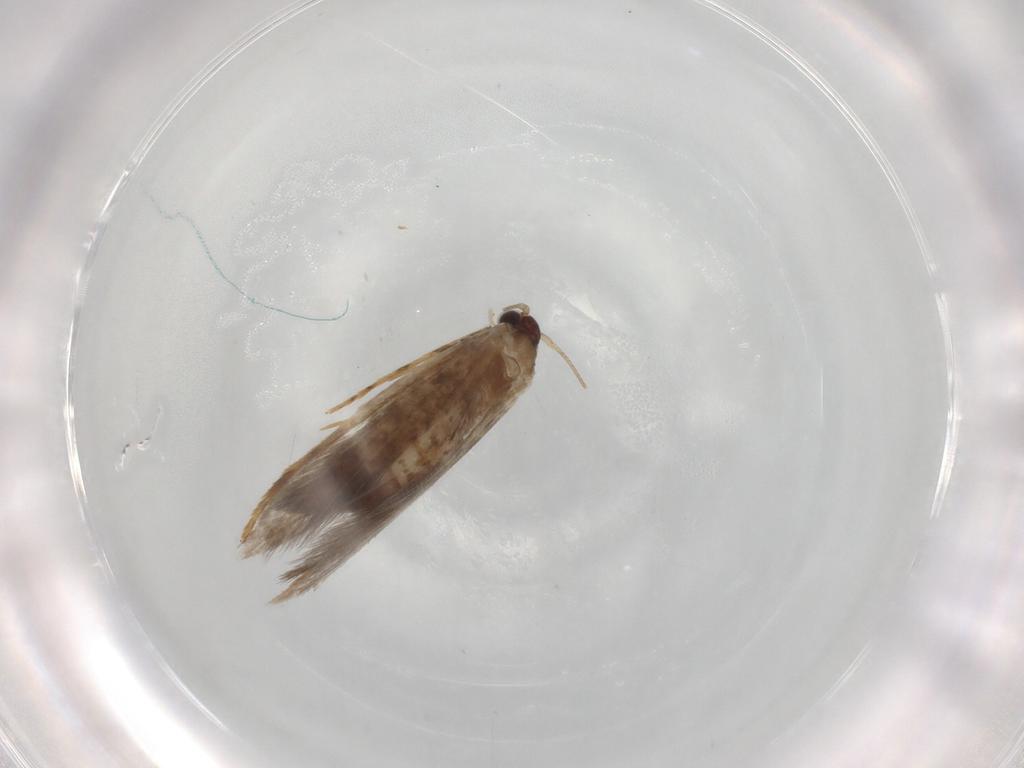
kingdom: Animalia
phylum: Arthropoda
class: Insecta
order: Lepidoptera
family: Tineidae
